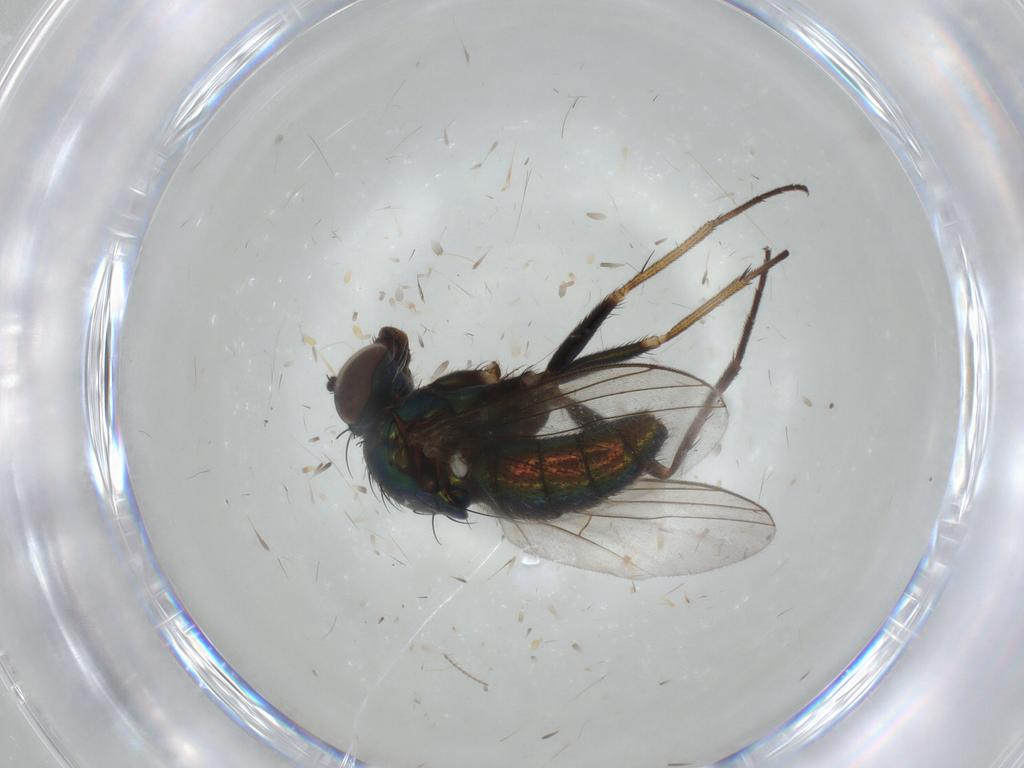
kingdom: Animalia
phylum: Arthropoda
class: Insecta
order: Diptera
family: Dolichopodidae
